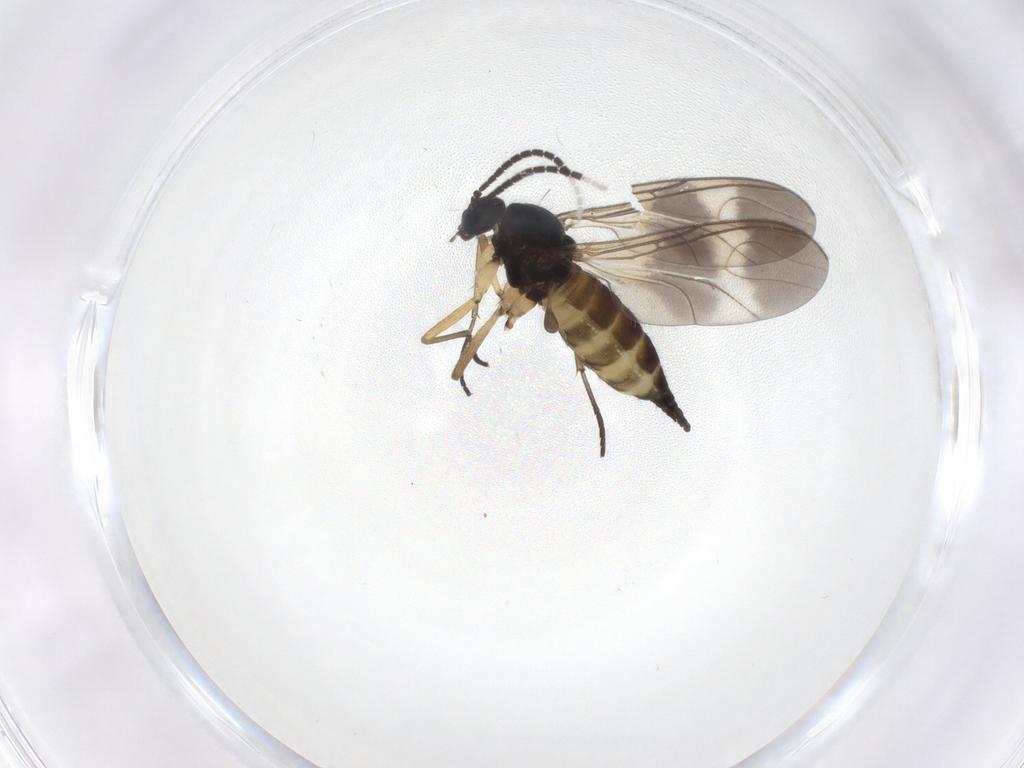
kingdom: Animalia
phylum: Arthropoda
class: Insecta
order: Diptera
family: Sciaridae
